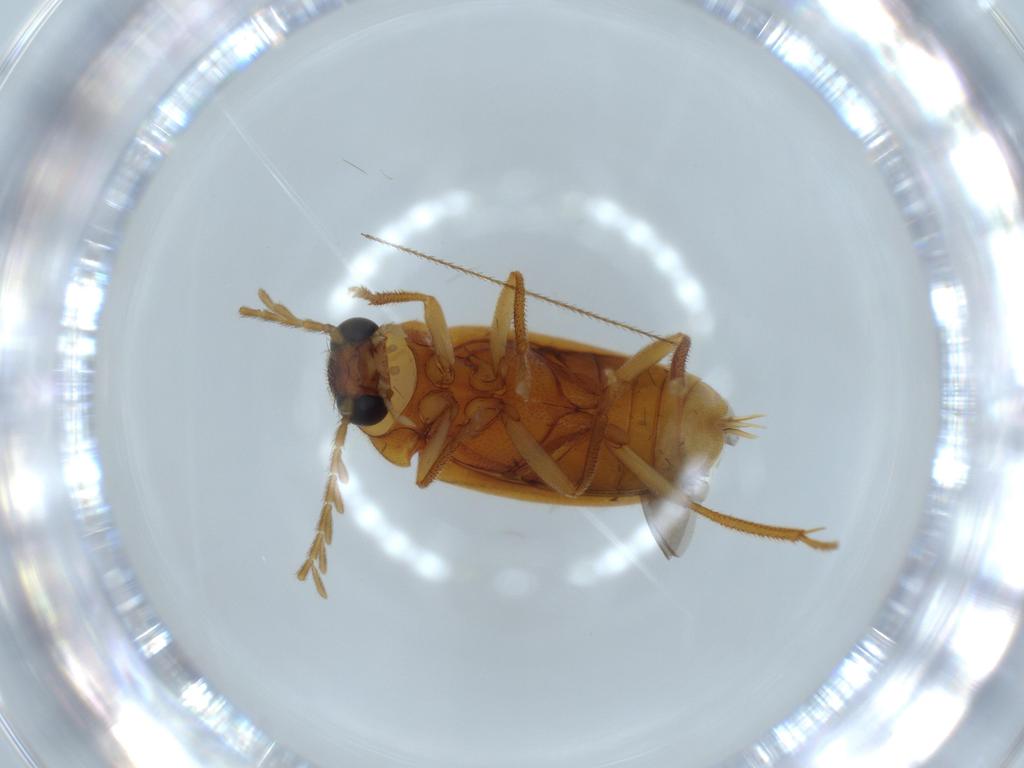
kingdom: Animalia
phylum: Arthropoda
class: Insecta
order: Coleoptera
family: Ptilodactylidae
